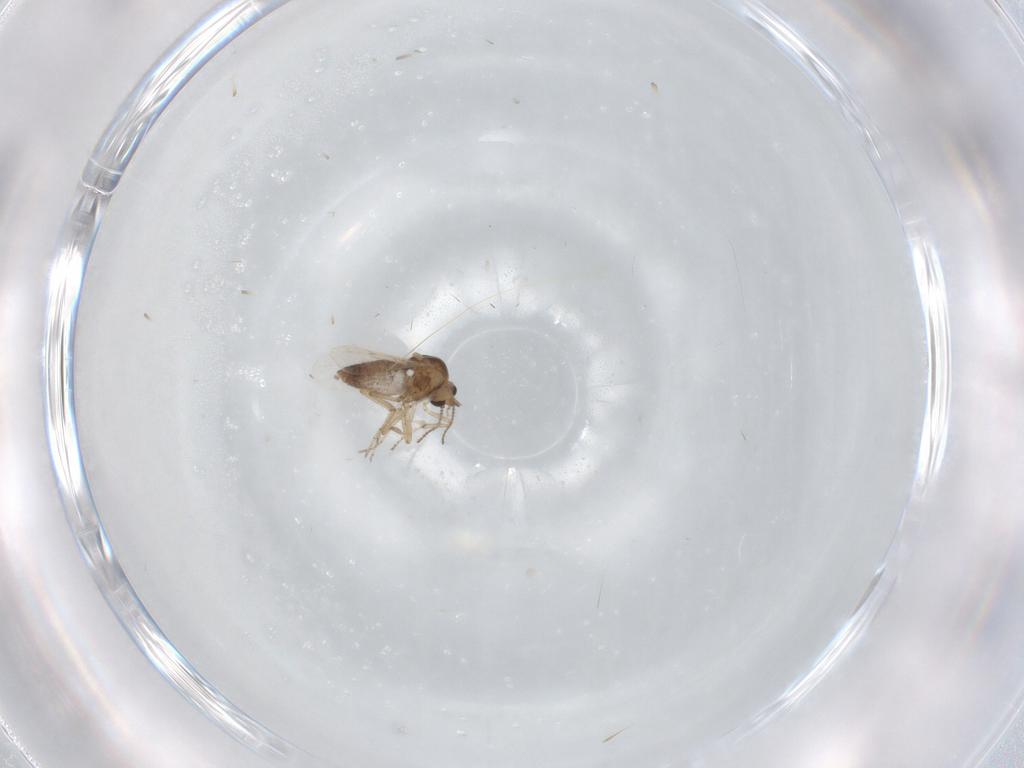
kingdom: Animalia
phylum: Arthropoda
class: Insecta
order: Diptera
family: Ceratopogonidae
